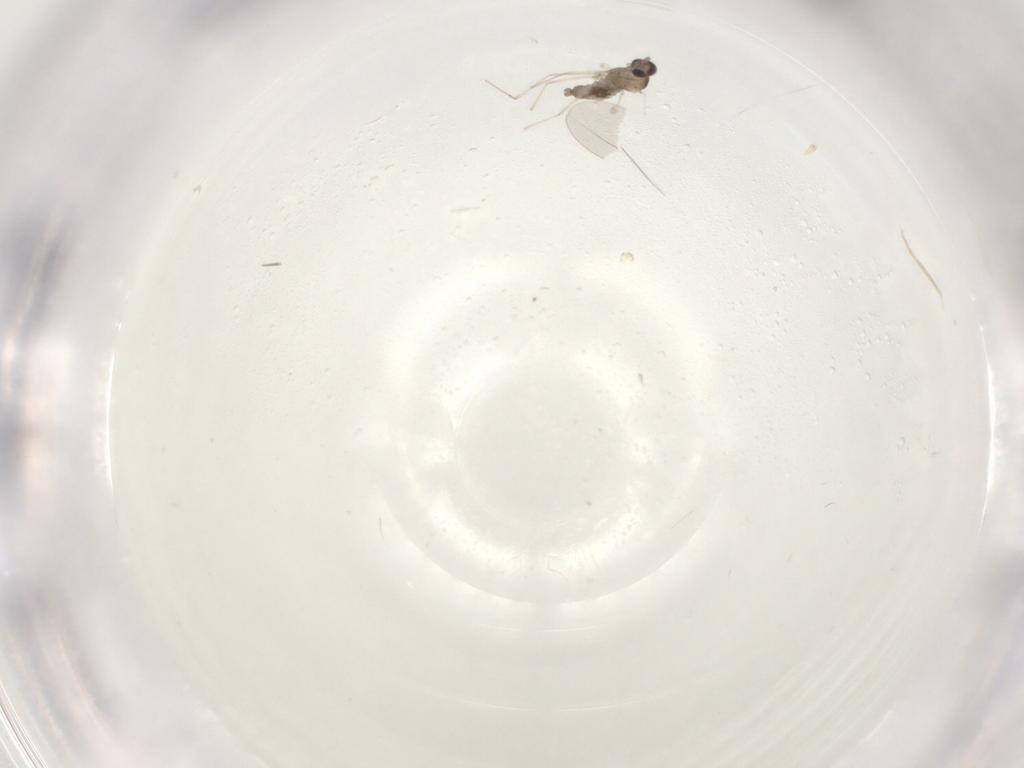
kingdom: Animalia
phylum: Arthropoda
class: Insecta
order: Diptera
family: Cecidomyiidae
